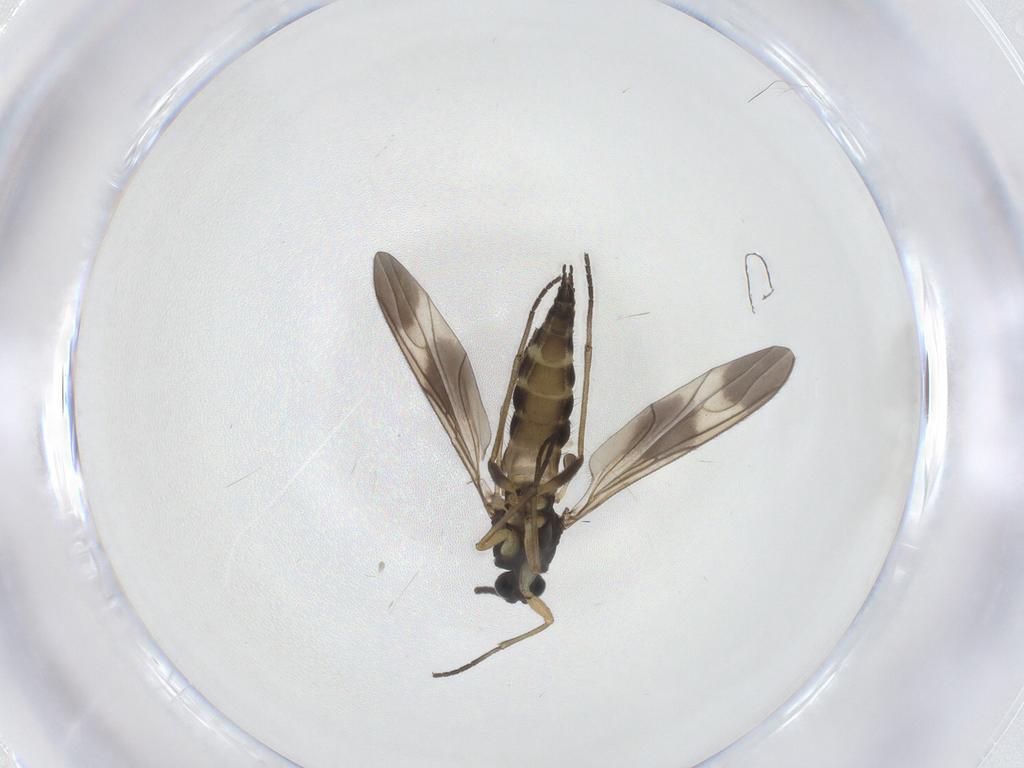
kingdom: Animalia
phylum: Arthropoda
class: Insecta
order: Diptera
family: Sciaridae
